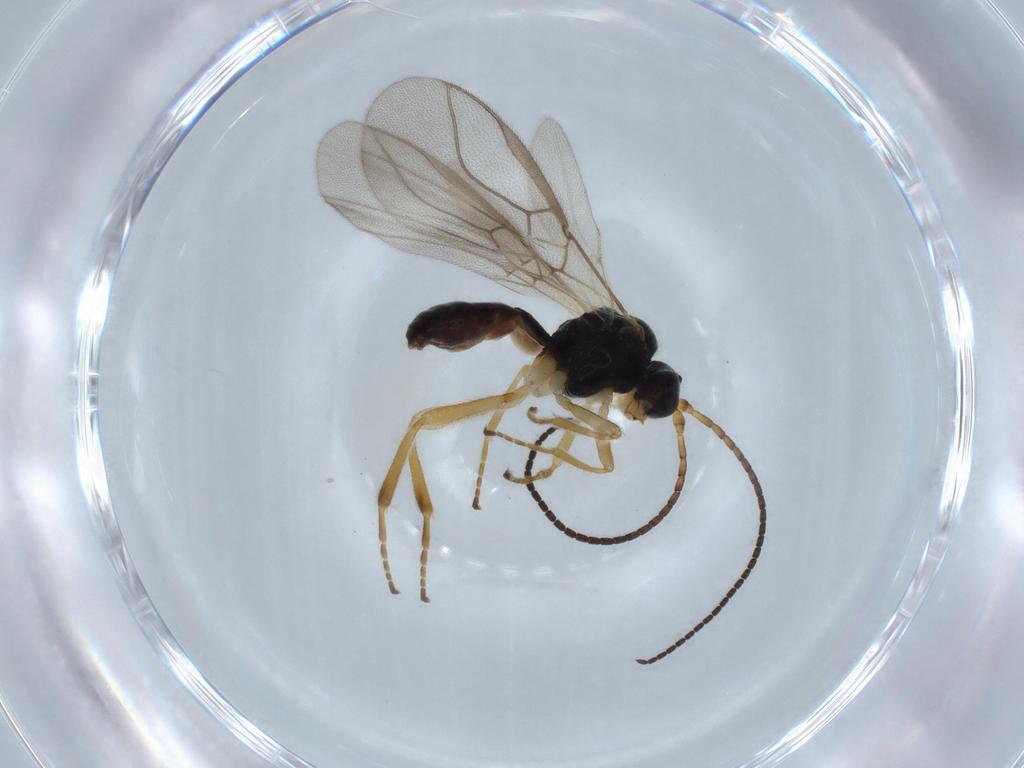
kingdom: Animalia
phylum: Arthropoda
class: Insecta
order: Hymenoptera
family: Braconidae
